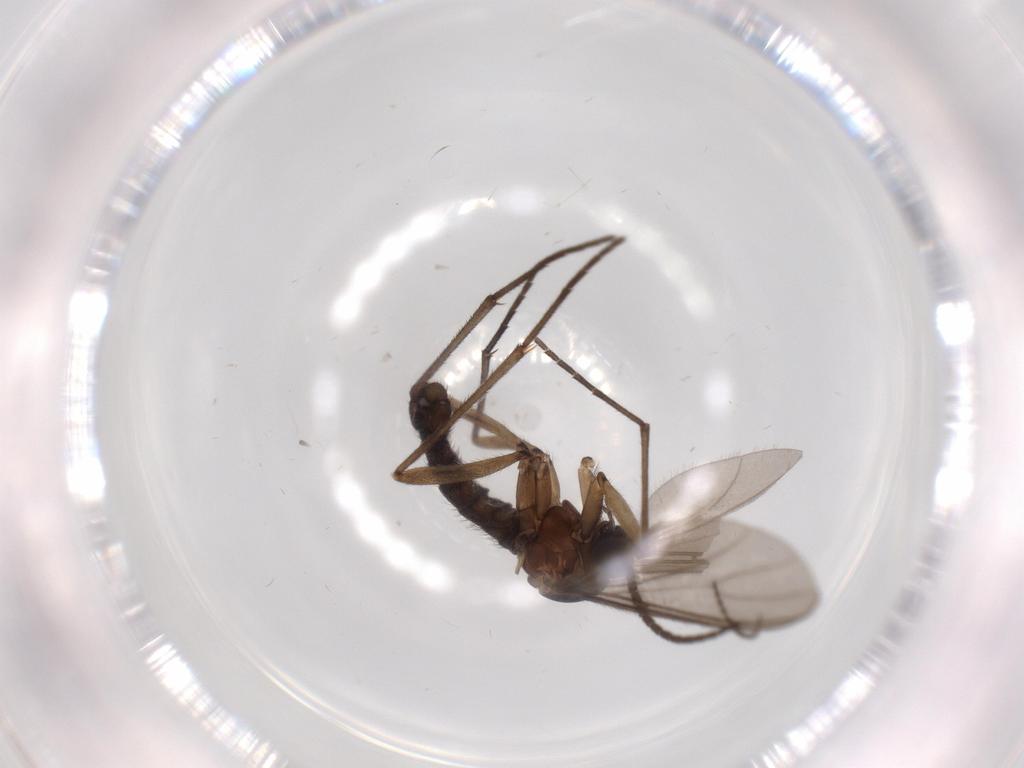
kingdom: Animalia
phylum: Arthropoda
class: Insecta
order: Diptera
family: Sciaridae
